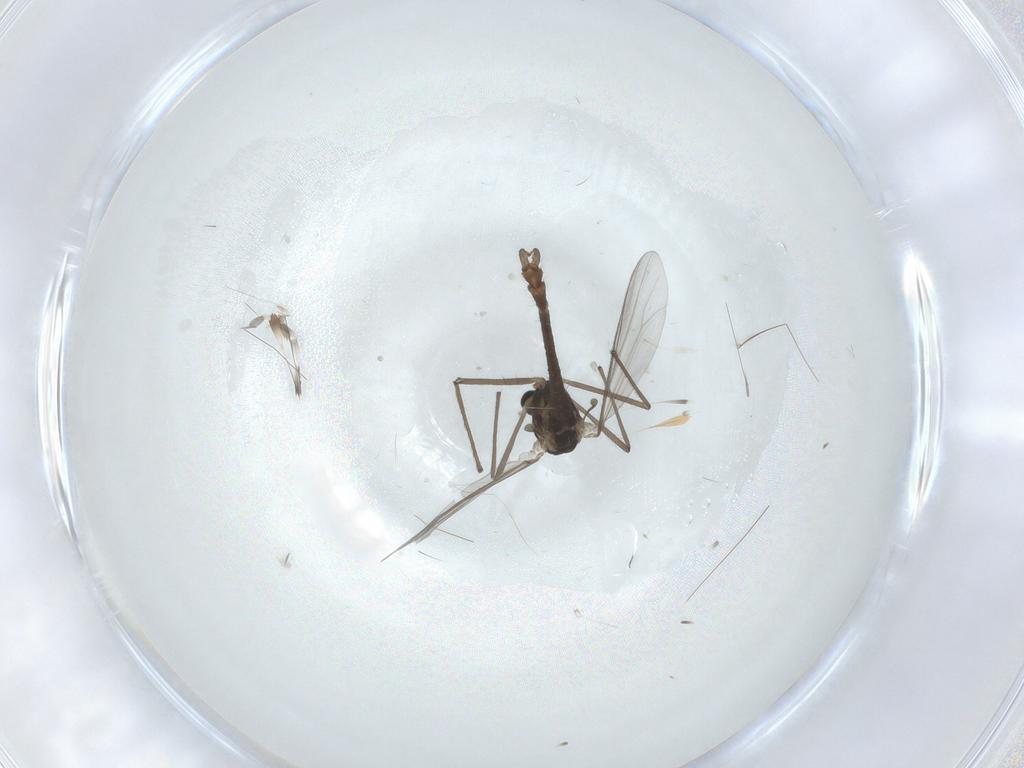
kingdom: Animalia
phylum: Arthropoda
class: Insecta
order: Diptera
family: Chironomidae
